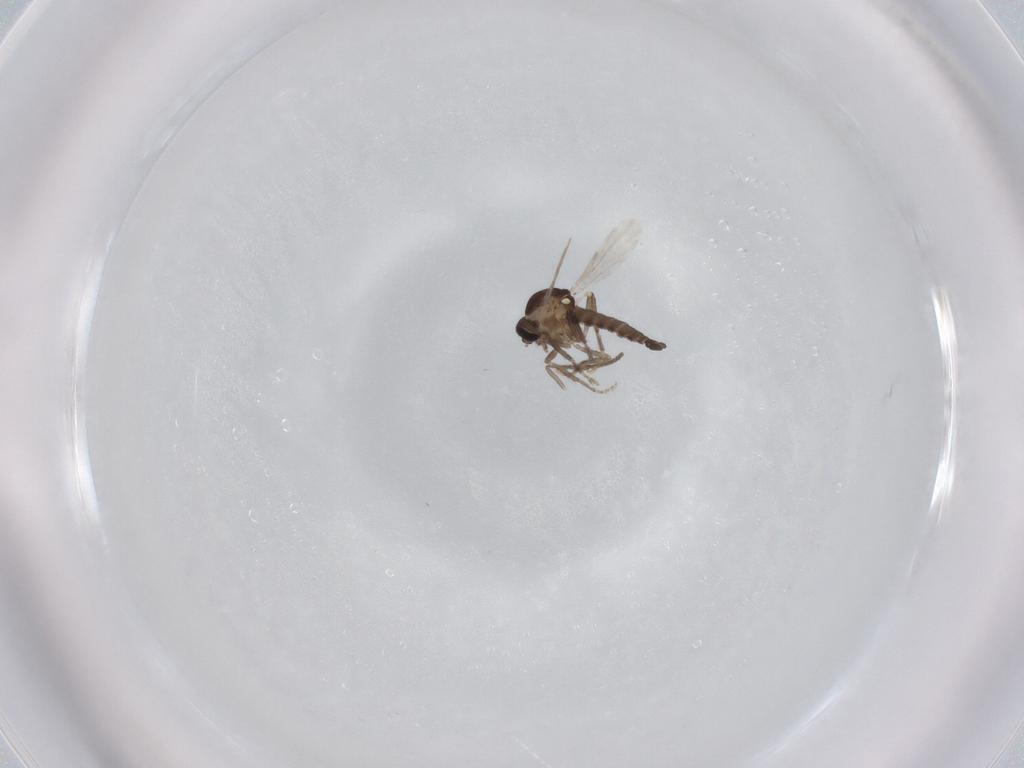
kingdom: Animalia
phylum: Arthropoda
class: Insecta
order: Diptera
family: Ceratopogonidae
